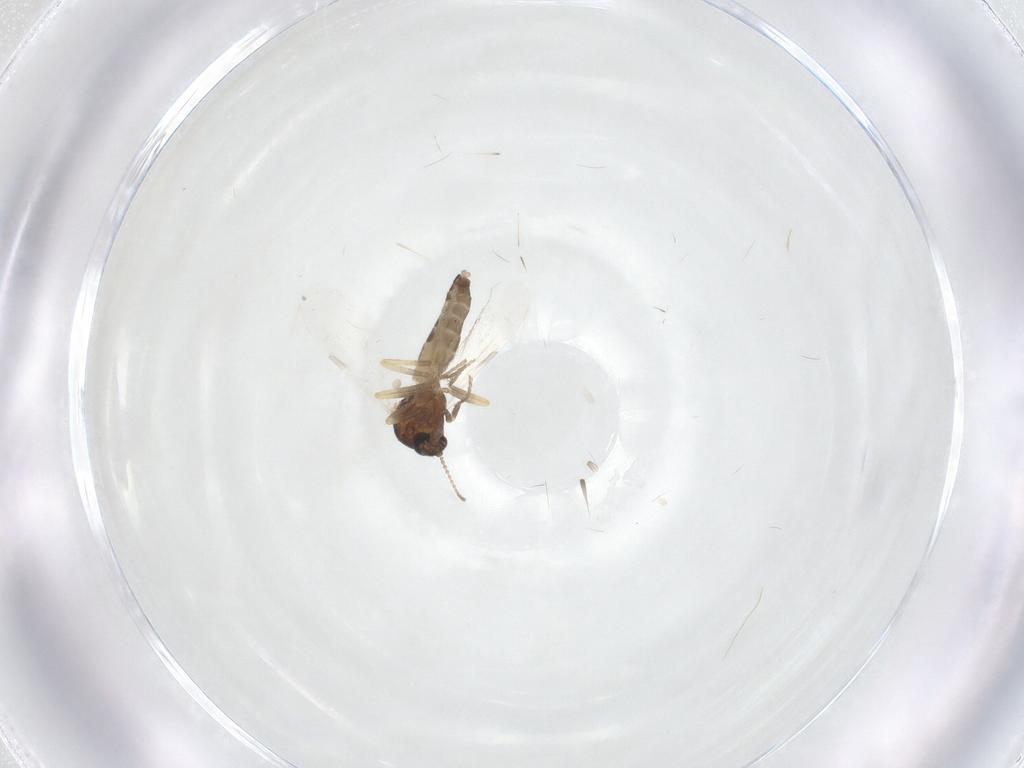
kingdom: Animalia
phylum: Arthropoda
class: Insecta
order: Diptera
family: Ceratopogonidae
